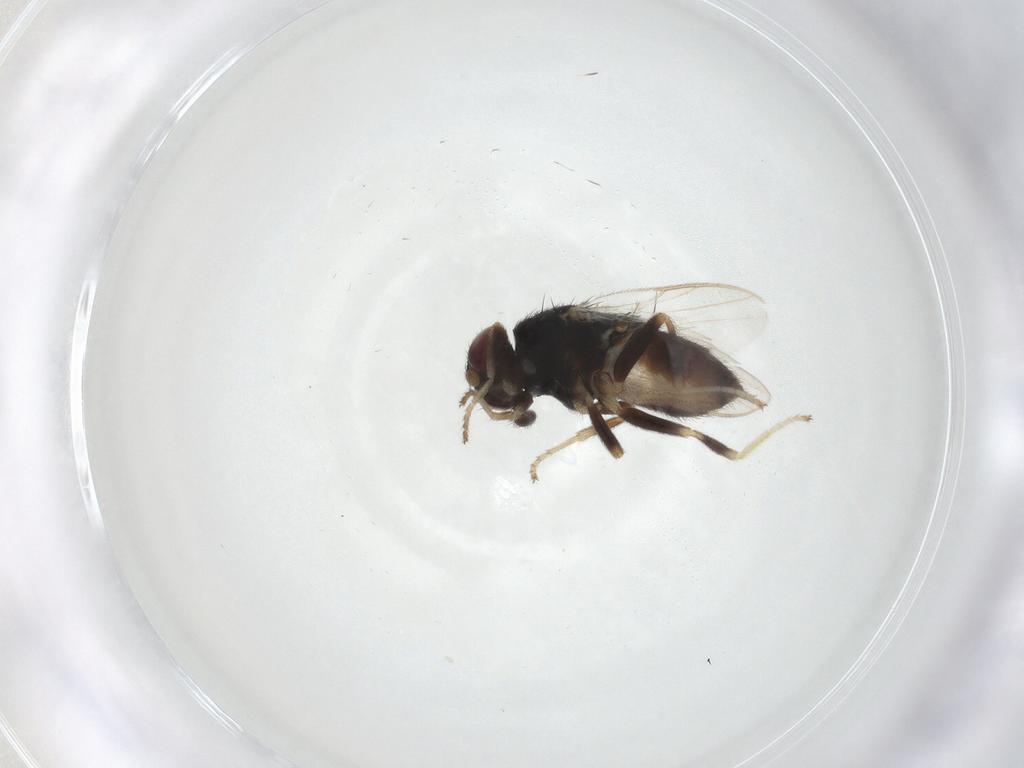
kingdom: Animalia
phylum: Arthropoda
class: Insecta
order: Diptera
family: Chloropidae
